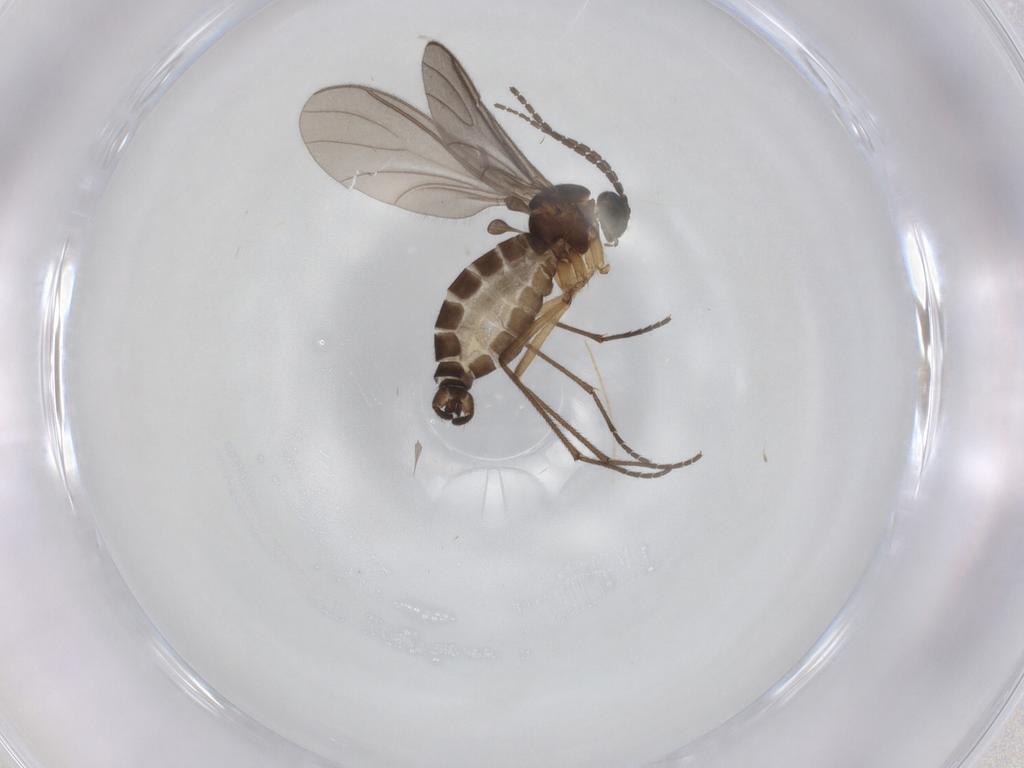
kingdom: Animalia
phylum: Arthropoda
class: Insecta
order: Diptera
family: Sciaridae
